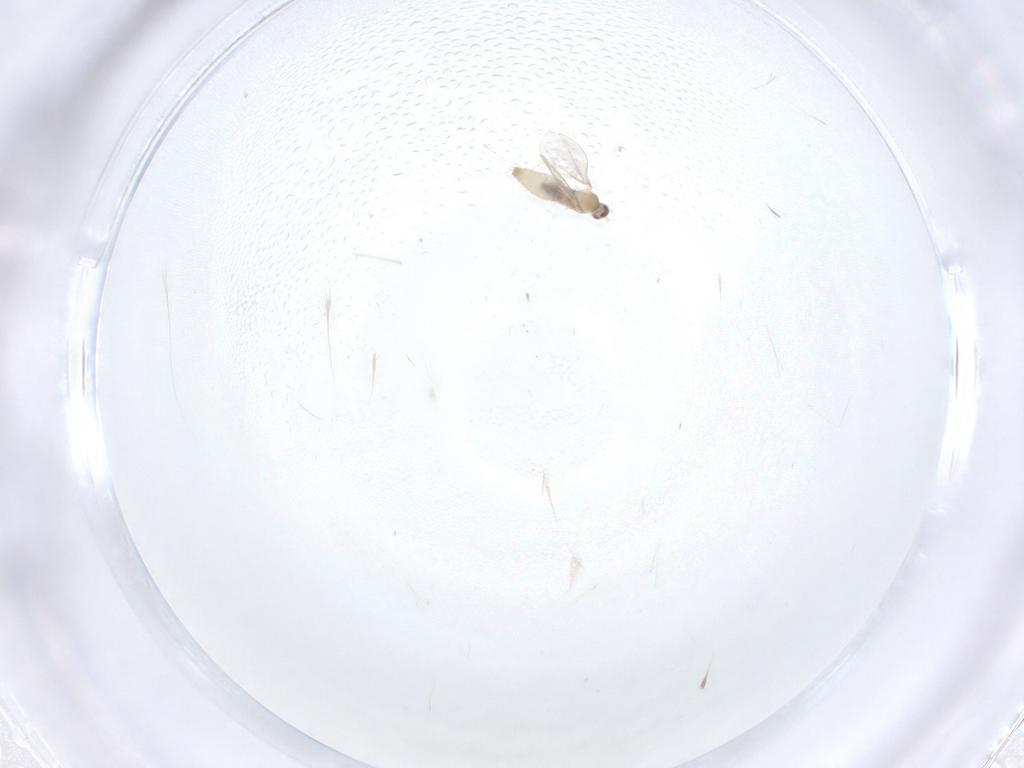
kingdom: Animalia
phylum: Arthropoda
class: Insecta
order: Diptera
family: Cecidomyiidae
